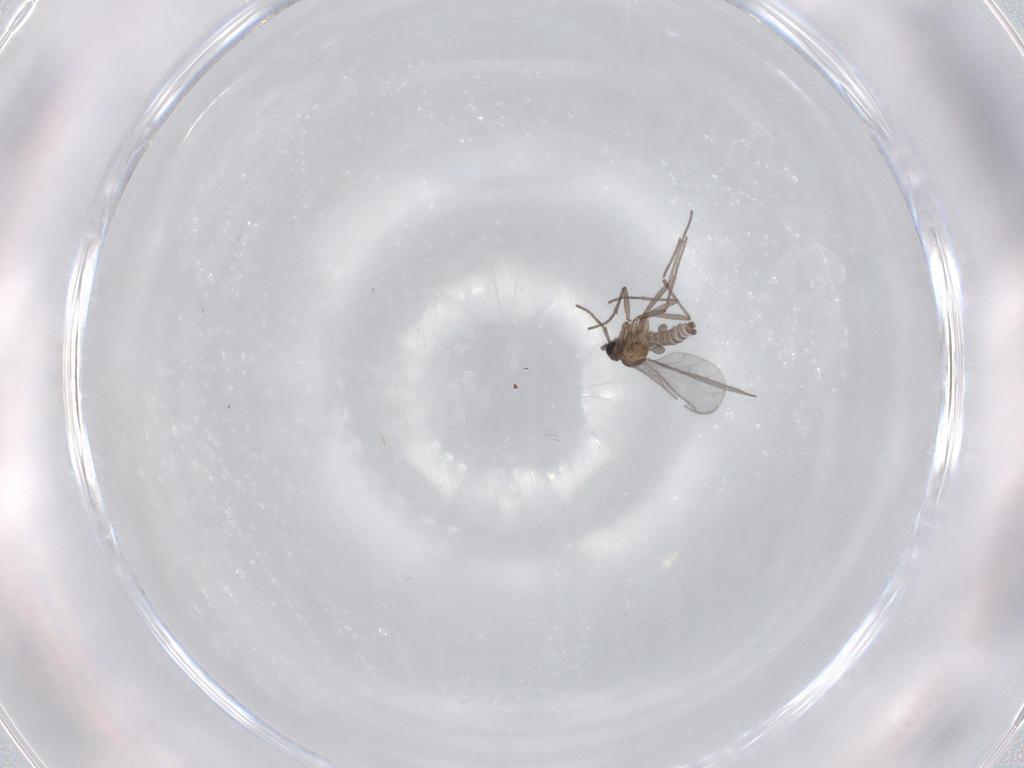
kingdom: Animalia
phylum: Arthropoda
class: Insecta
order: Diptera
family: Sciaridae
